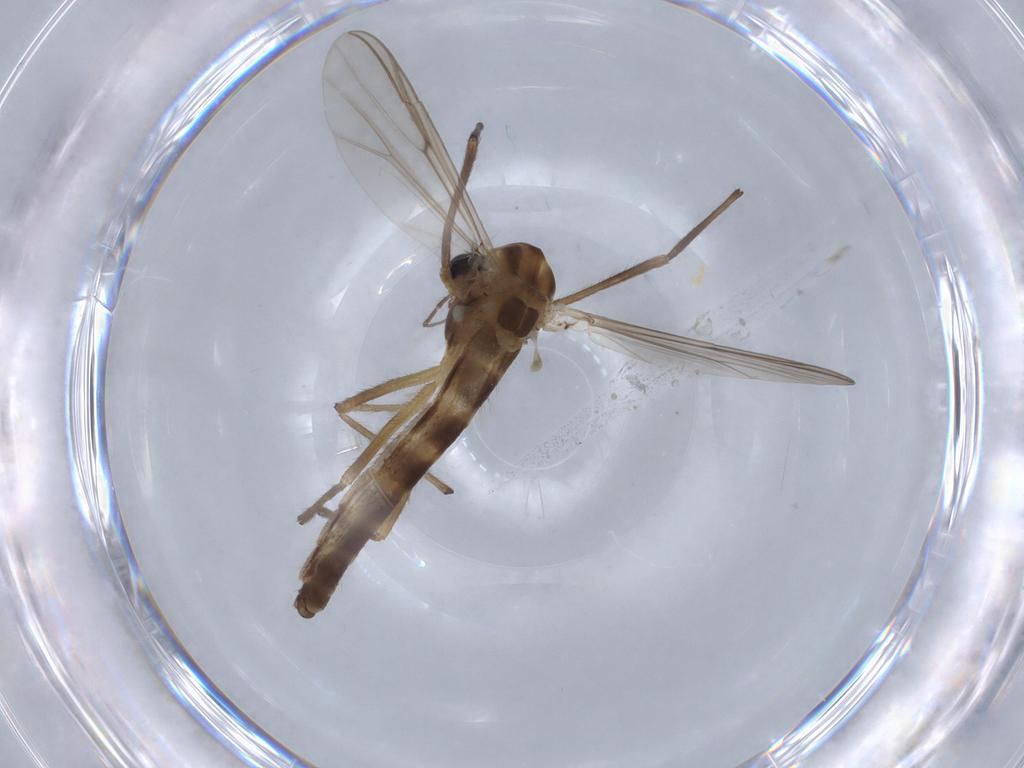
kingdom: Animalia
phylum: Arthropoda
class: Insecta
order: Diptera
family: Chironomidae
